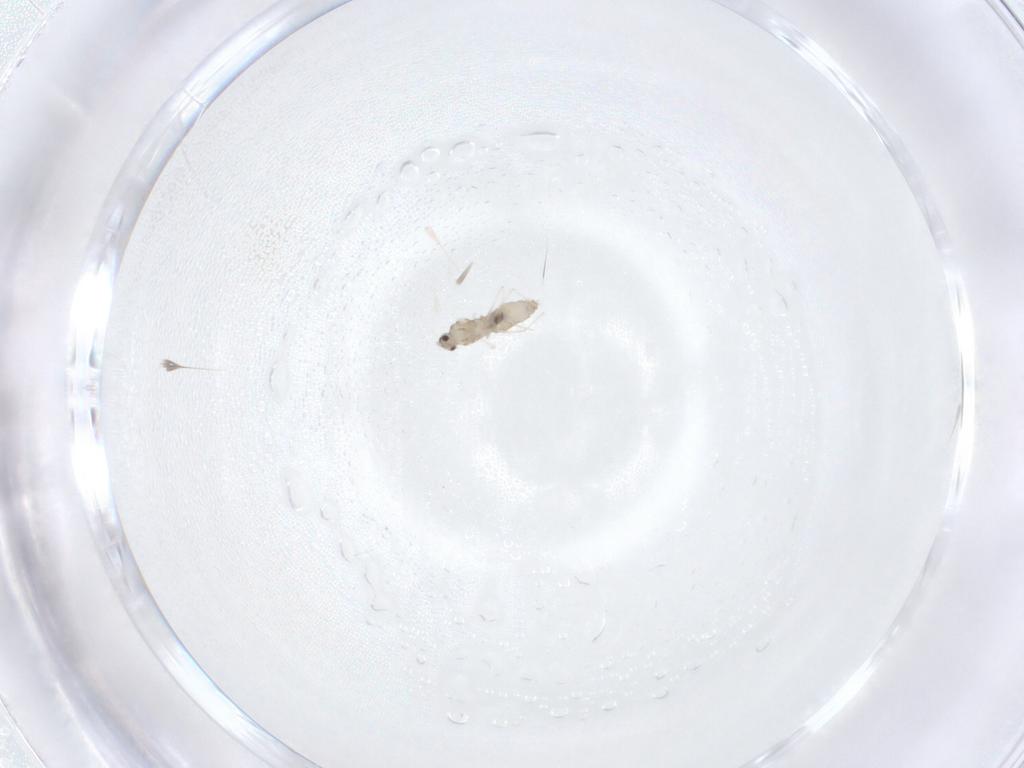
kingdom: Animalia
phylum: Arthropoda
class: Insecta
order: Diptera
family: Cecidomyiidae
